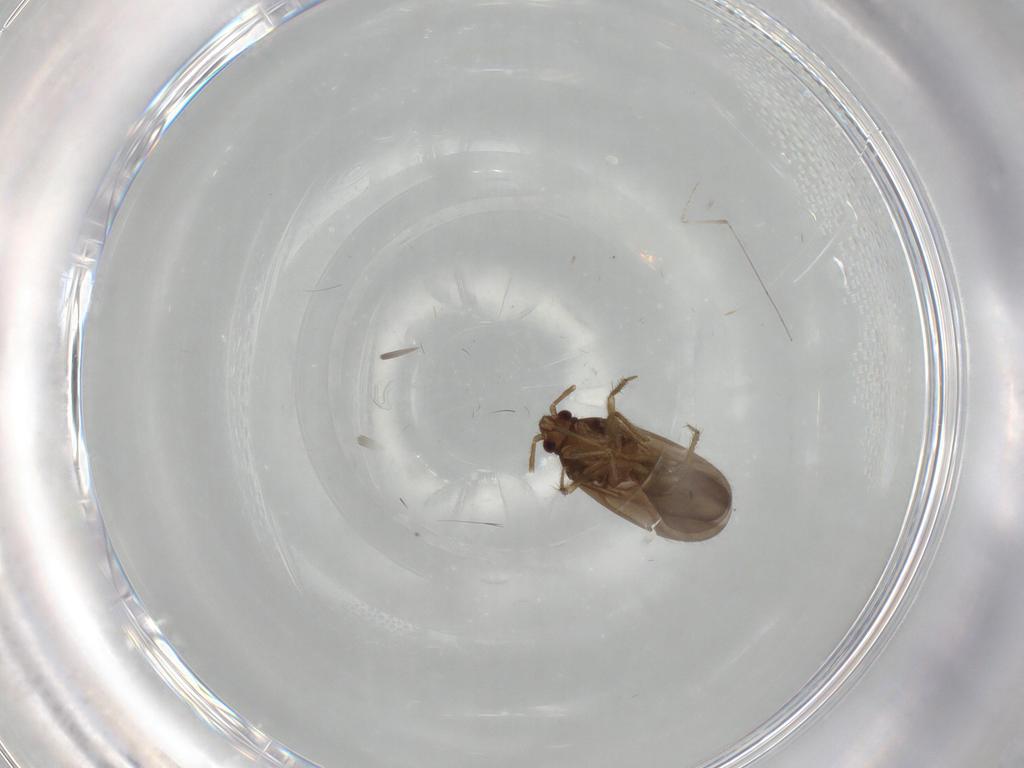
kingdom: Animalia
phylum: Arthropoda
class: Insecta
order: Hemiptera
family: Ceratocombidae
